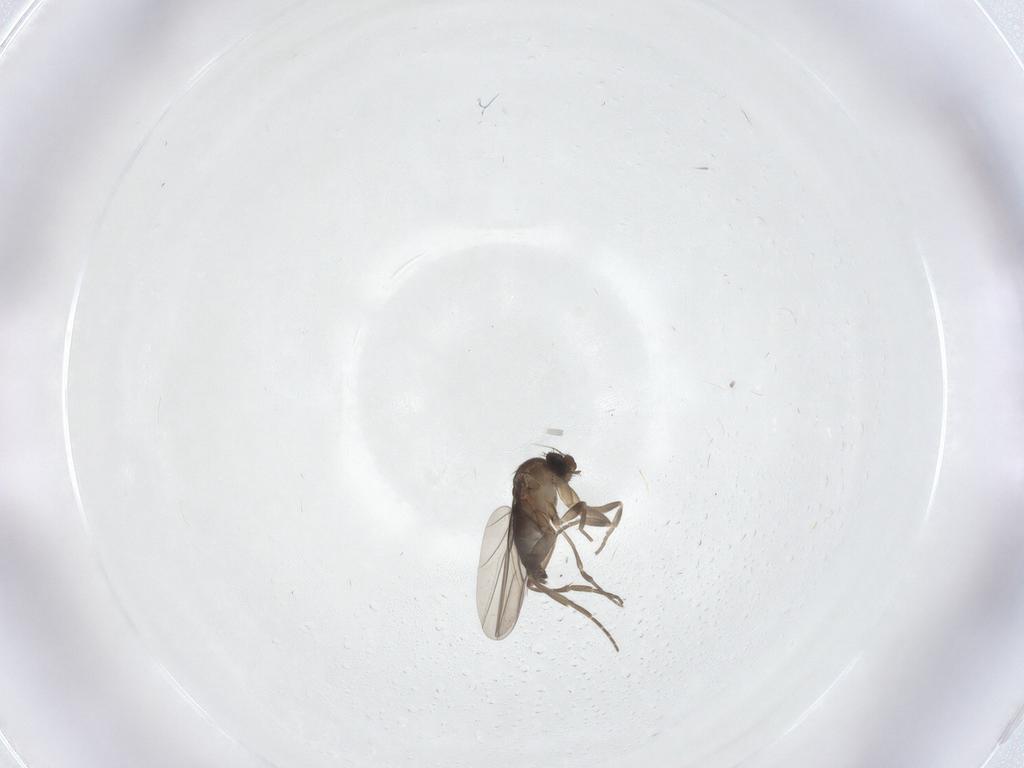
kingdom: Animalia
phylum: Arthropoda
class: Insecta
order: Diptera
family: Phoridae
